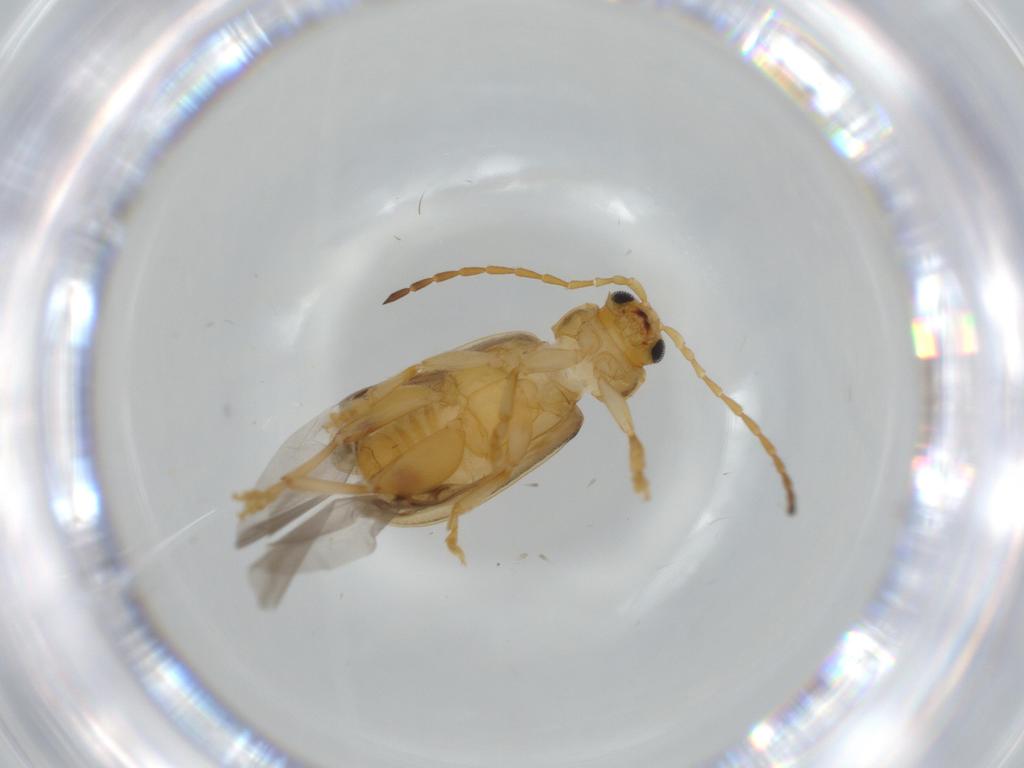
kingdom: Animalia
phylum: Arthropoda
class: Insecta
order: Coleoptera
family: Chrysomelidae
